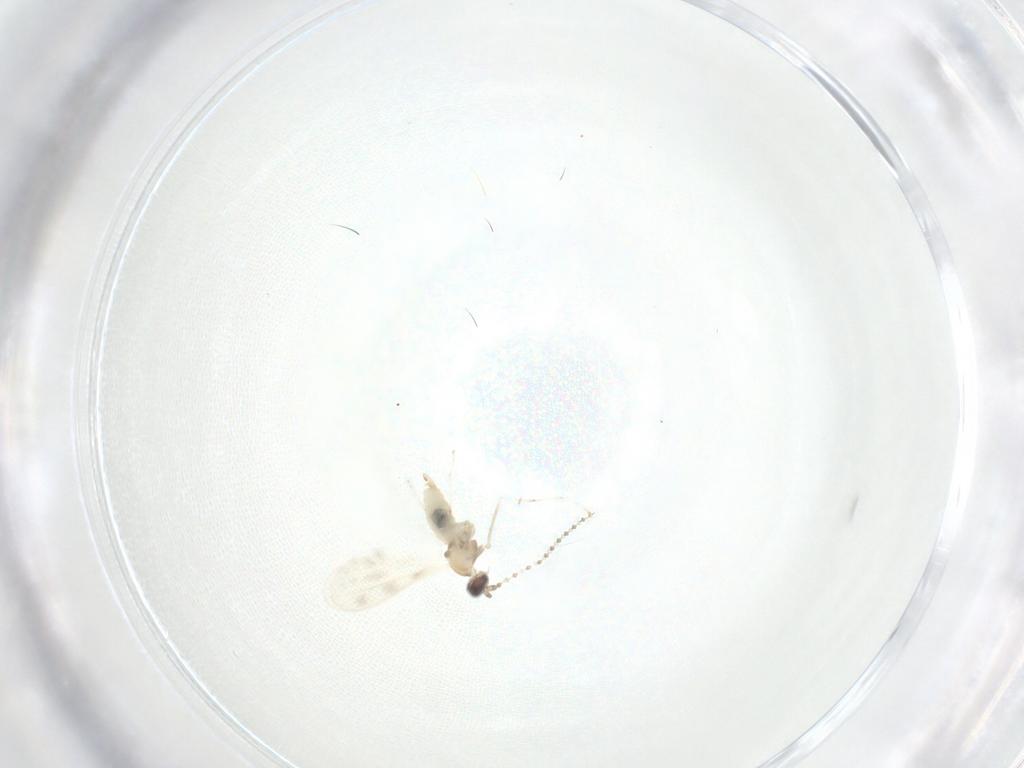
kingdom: Animalia
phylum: Arthropoda
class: Insecta
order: Diptera
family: Cecidomyiidae
